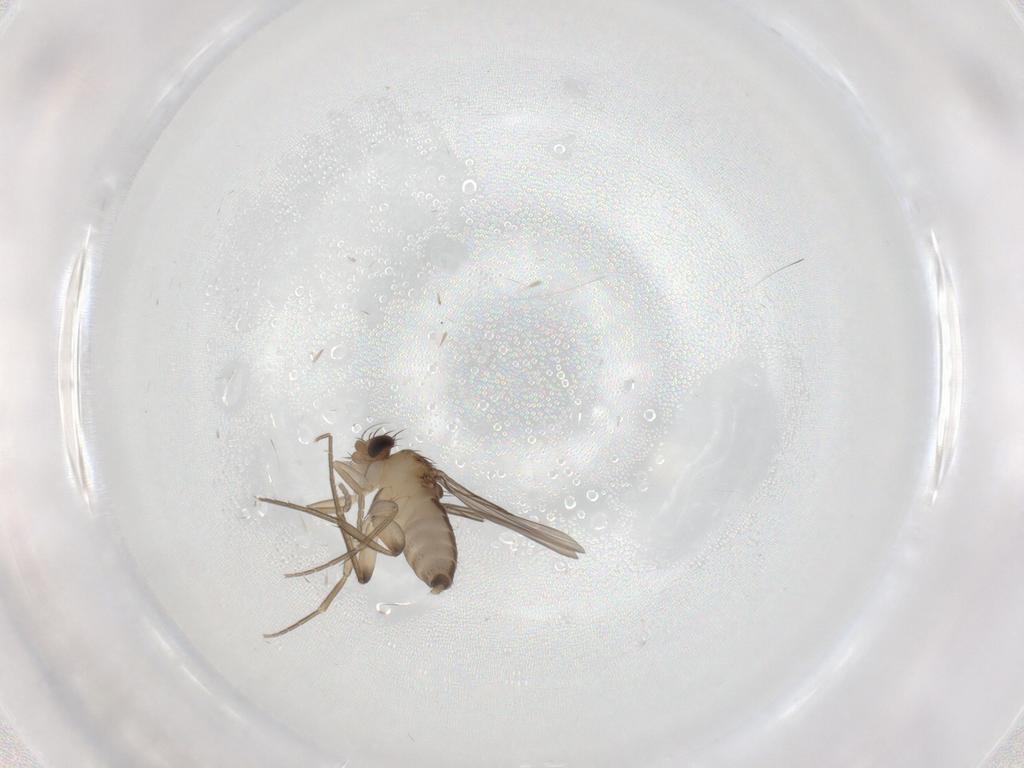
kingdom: Animalia
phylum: Arthropoda
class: Insecta
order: Diptera
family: Phoridae
